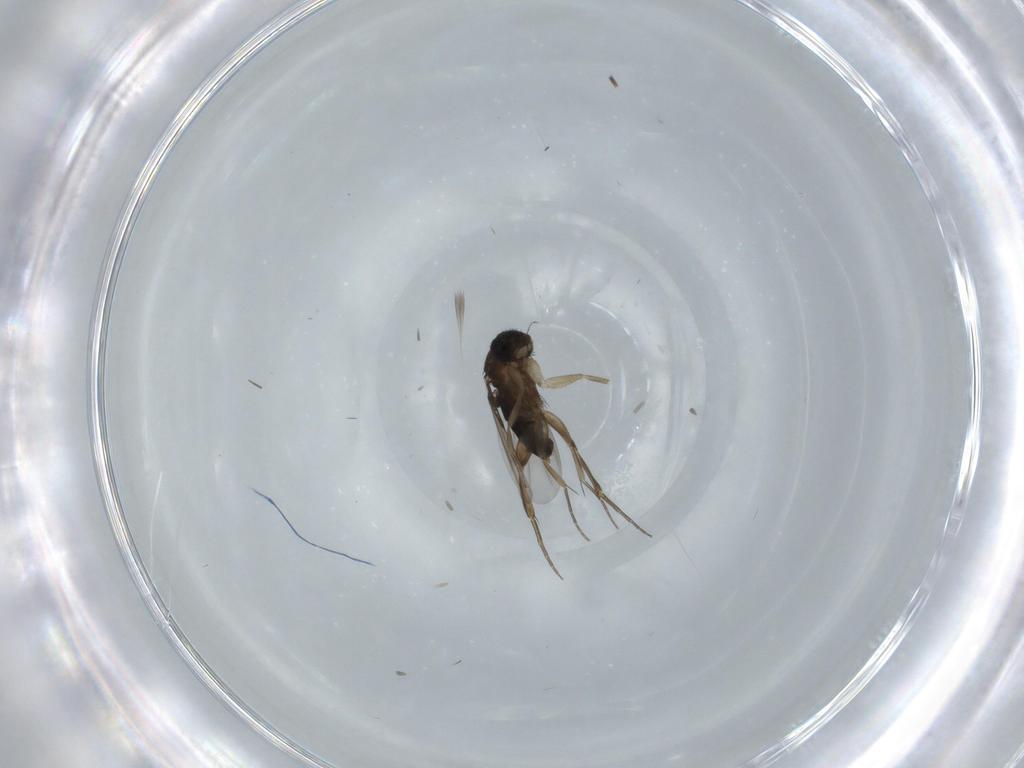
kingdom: Animalia
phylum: Arthropoda
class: Insecta
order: Diptera
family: Phoridae
